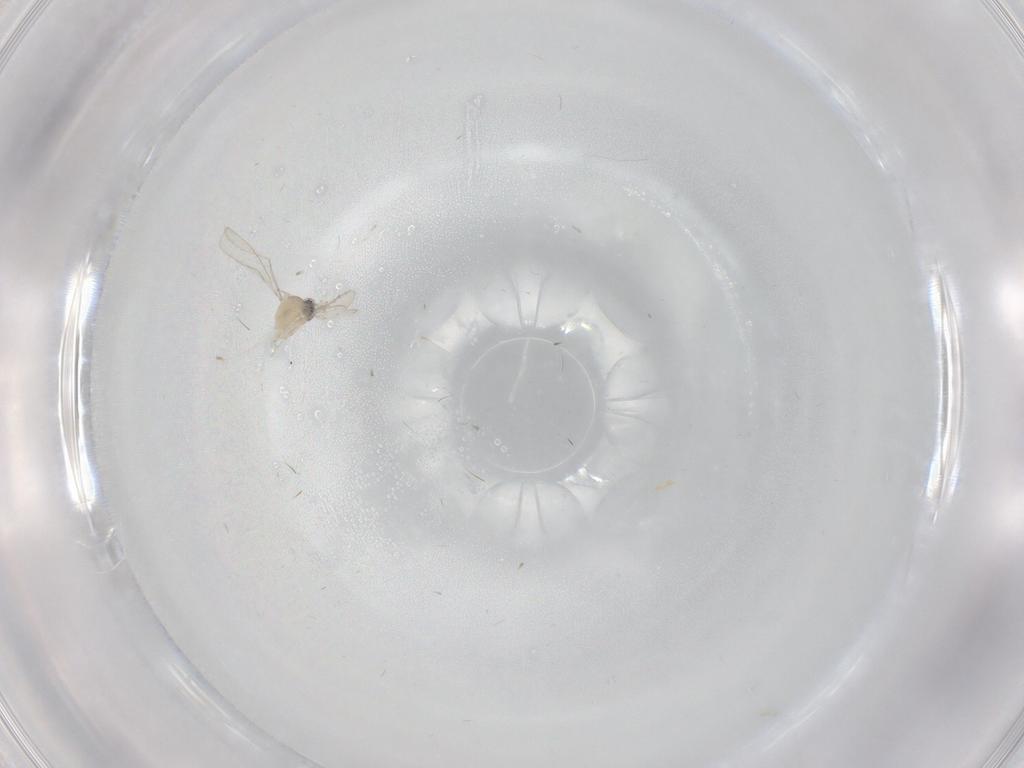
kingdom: Animalia
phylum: Arthropoda
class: Insecta
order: Diptera
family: Cecidomyiidae
